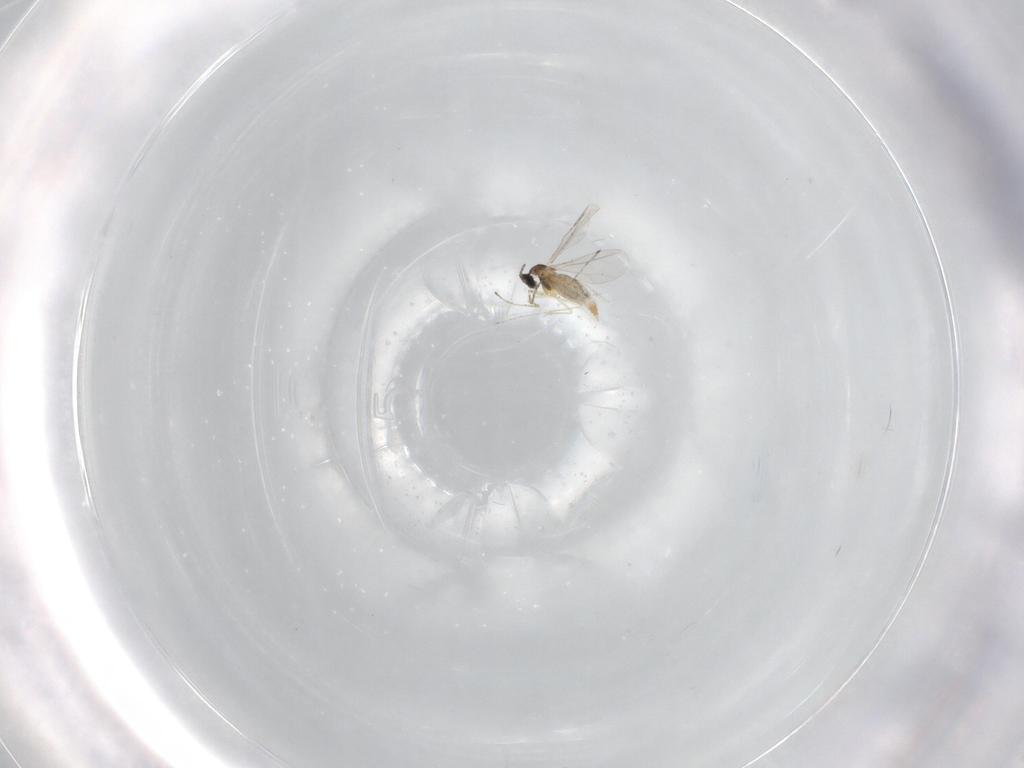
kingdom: Animalia
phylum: Arthropoda
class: Insecta
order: Diptera
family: Cecidomyiidae
